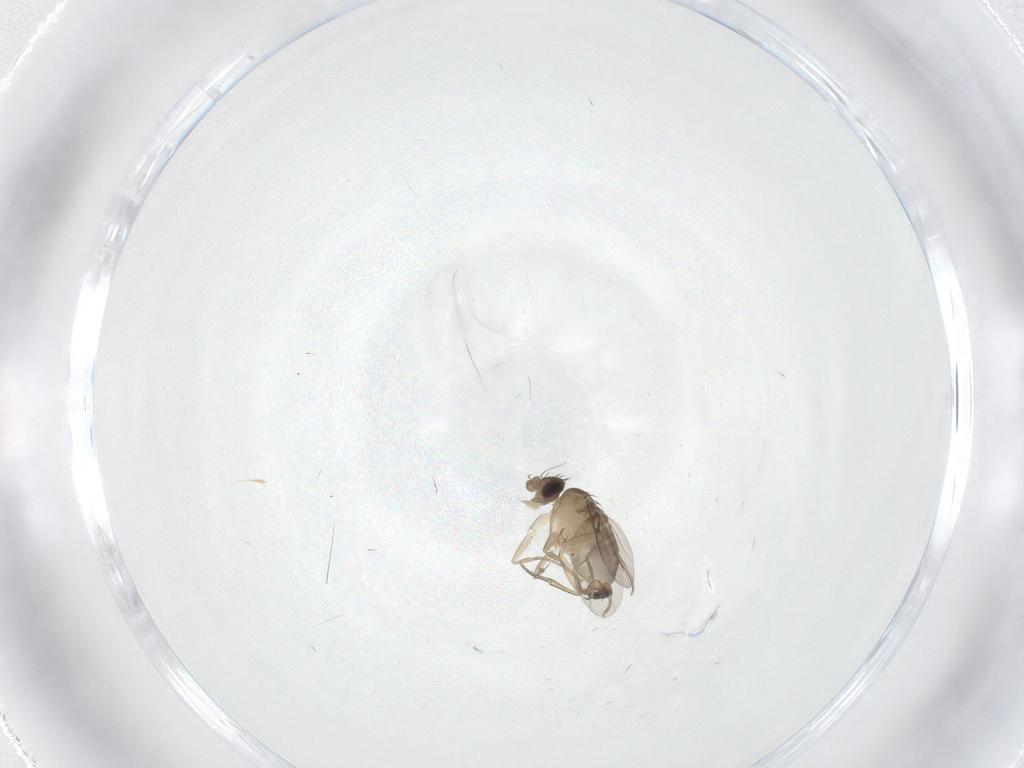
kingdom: Animalia
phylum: Arthropoda
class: Insecta
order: Diptera
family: Phoridae
